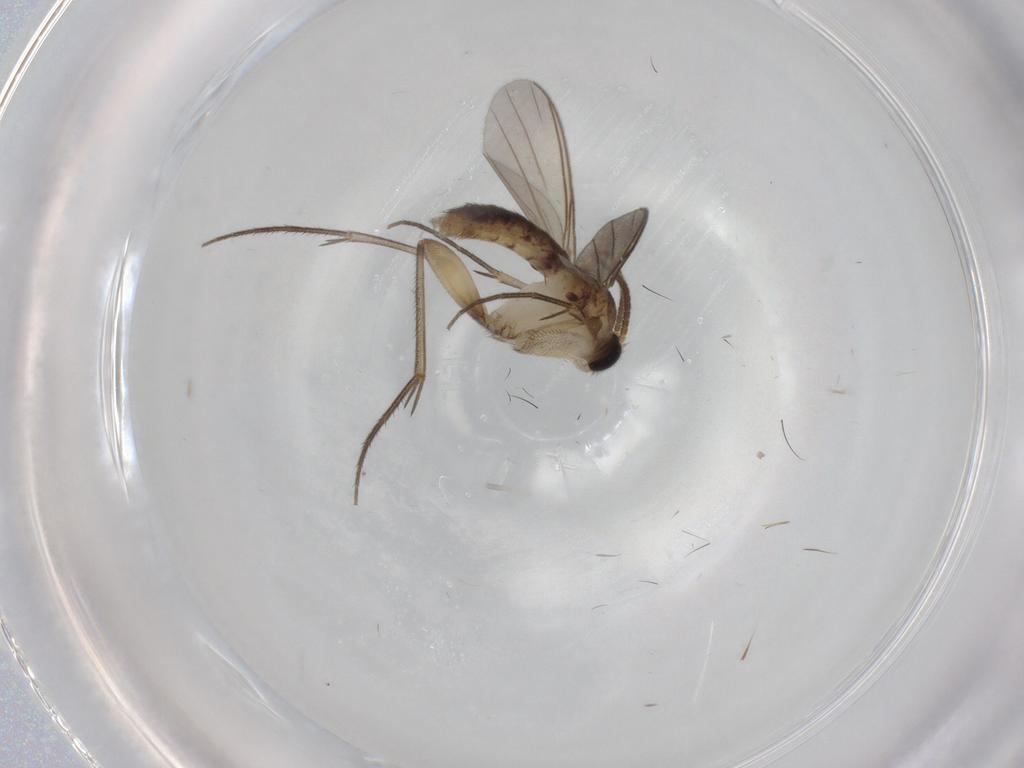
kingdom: Animalia
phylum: Arthropoda
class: Insecta
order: Diptera
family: Mycetophilidae
